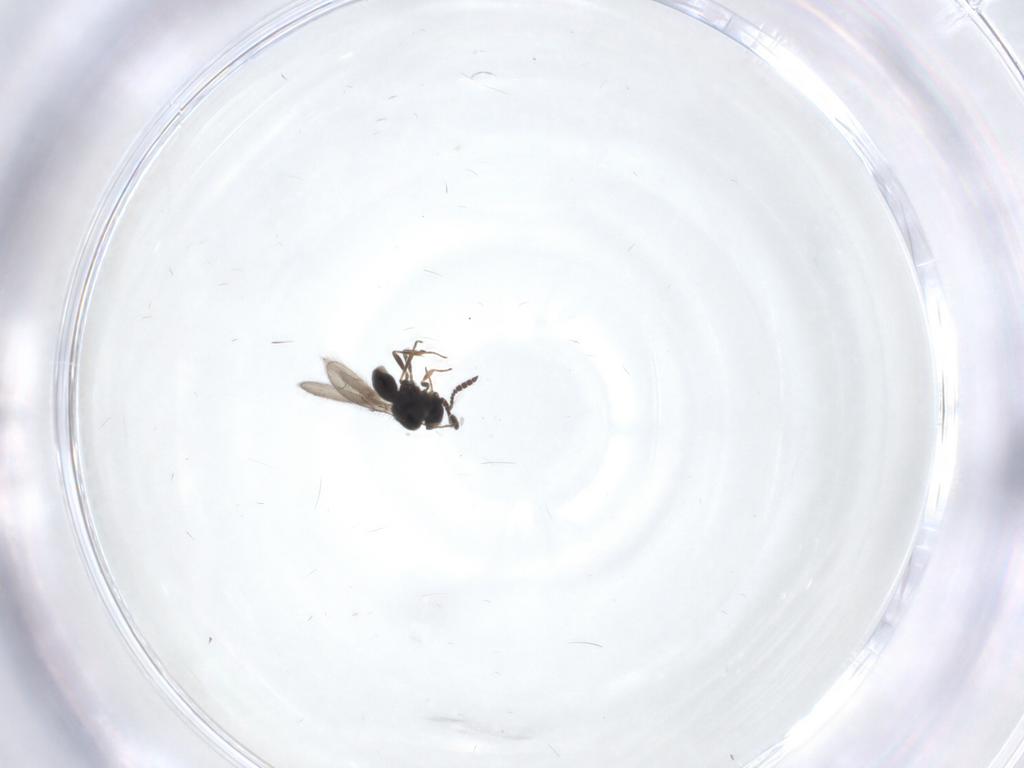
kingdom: Animalia
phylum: Arthropoda
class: Insecta
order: Hymenoptera
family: Scelionidae
